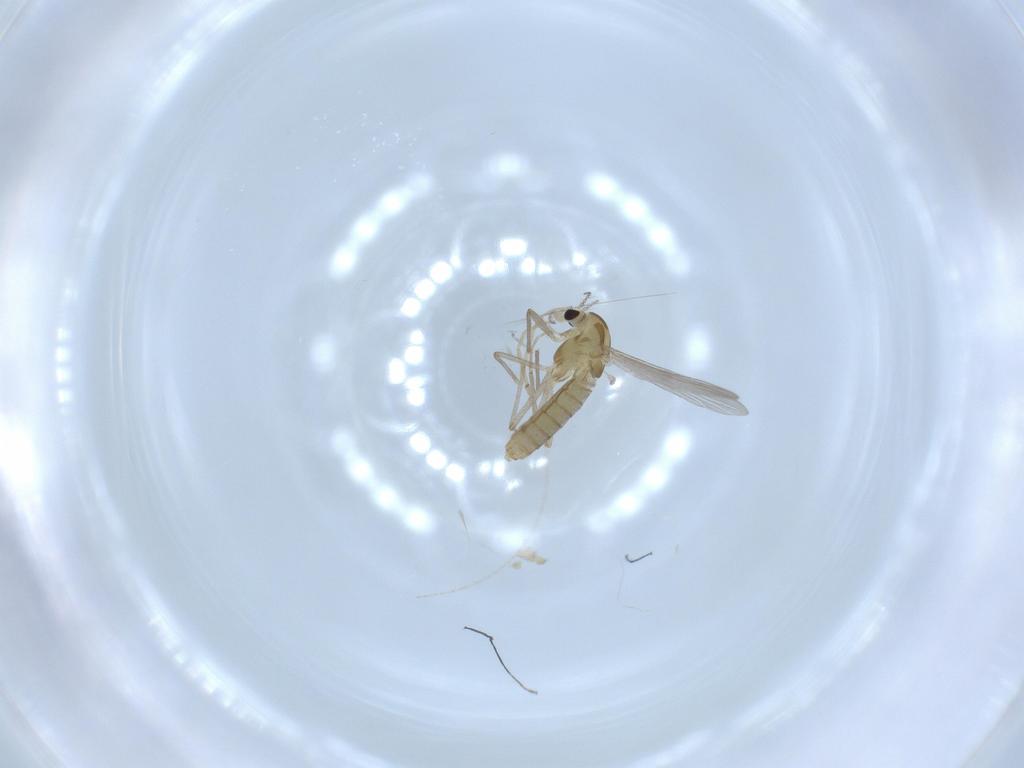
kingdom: Animalia
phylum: Arthropoda
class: Insecta
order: Diptera
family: Chironomidae
